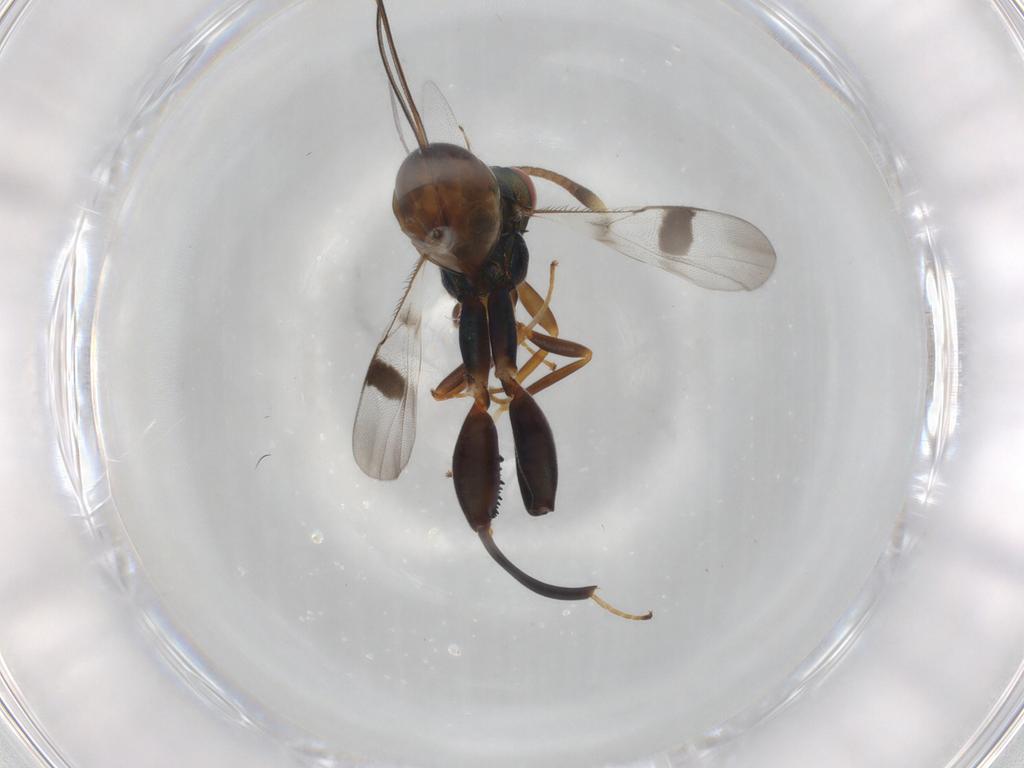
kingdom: Animalia
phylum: Arthropoda
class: Insecta
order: Hymenoptera
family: Torymidae
